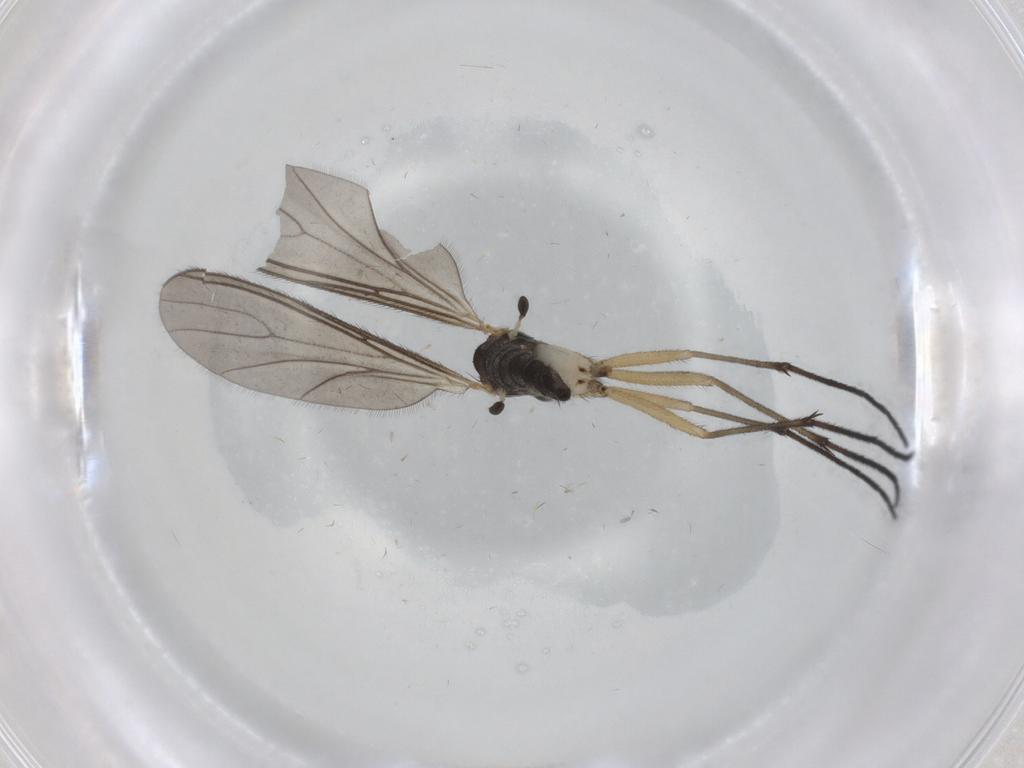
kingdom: Animalia
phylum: Arthropoda
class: Insecta
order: Diptera
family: Sciaridae
